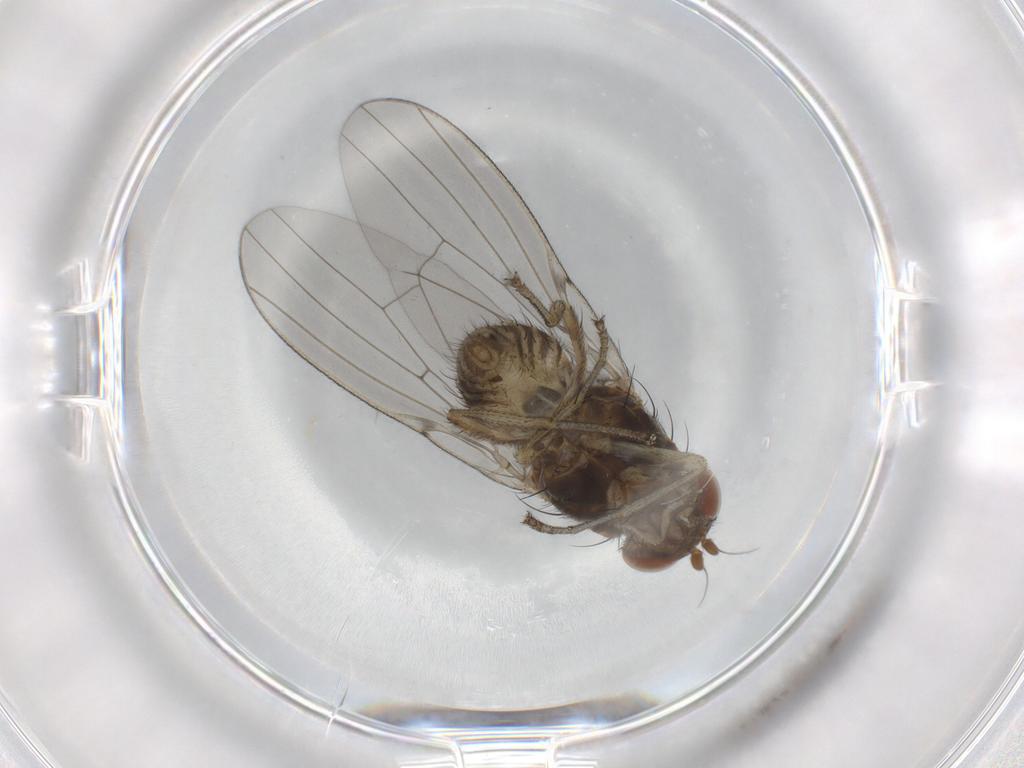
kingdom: Animalia
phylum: Arthropoda
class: Insecta
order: Diptera
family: Lauxaniidae
